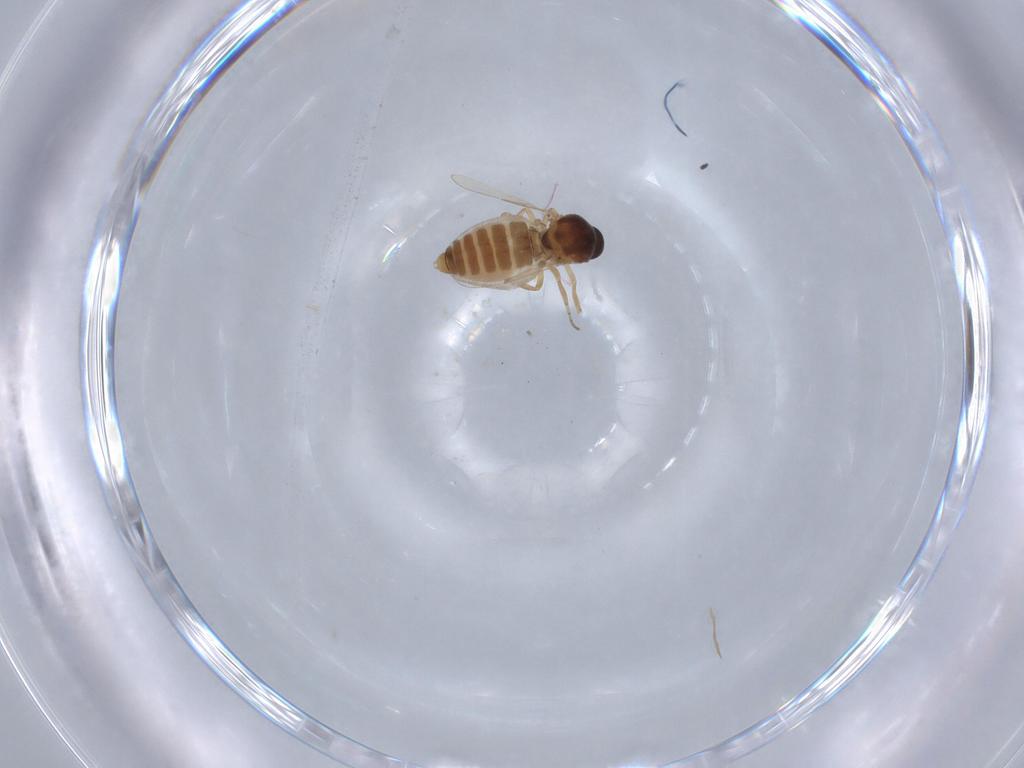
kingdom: Animalia
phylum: Arthropoda
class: Insecta
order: Diptera
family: Ceratopogonidae
